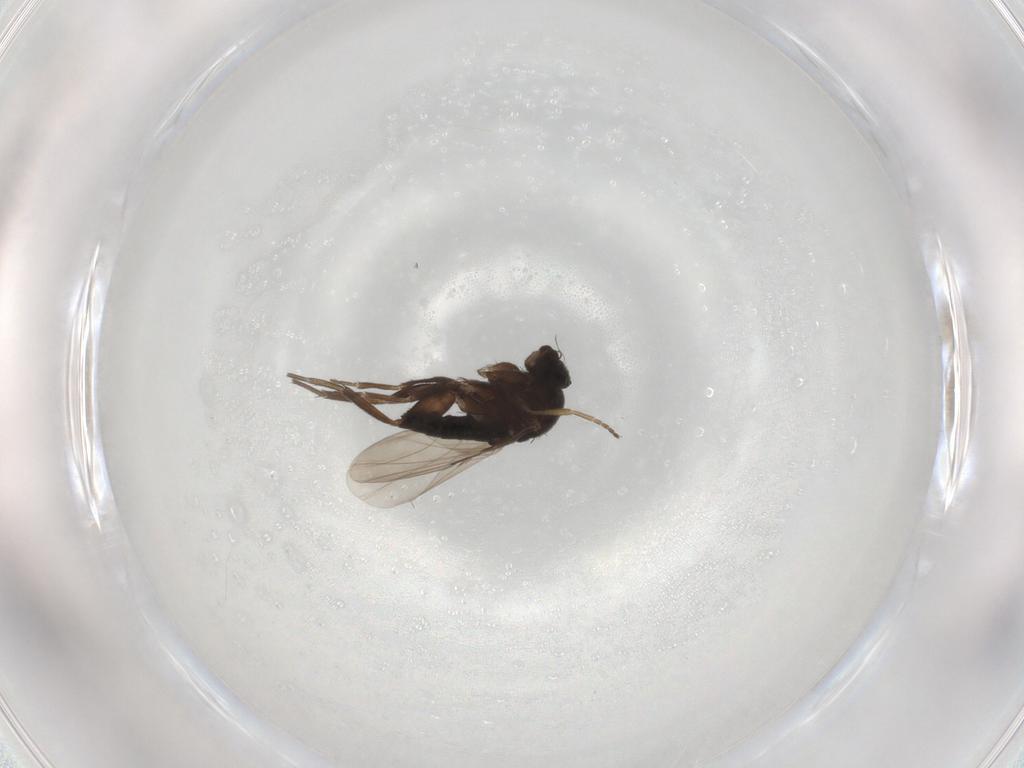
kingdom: Animalia
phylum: Arthropoda
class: Insecta
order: Diptera
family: Phoridae
